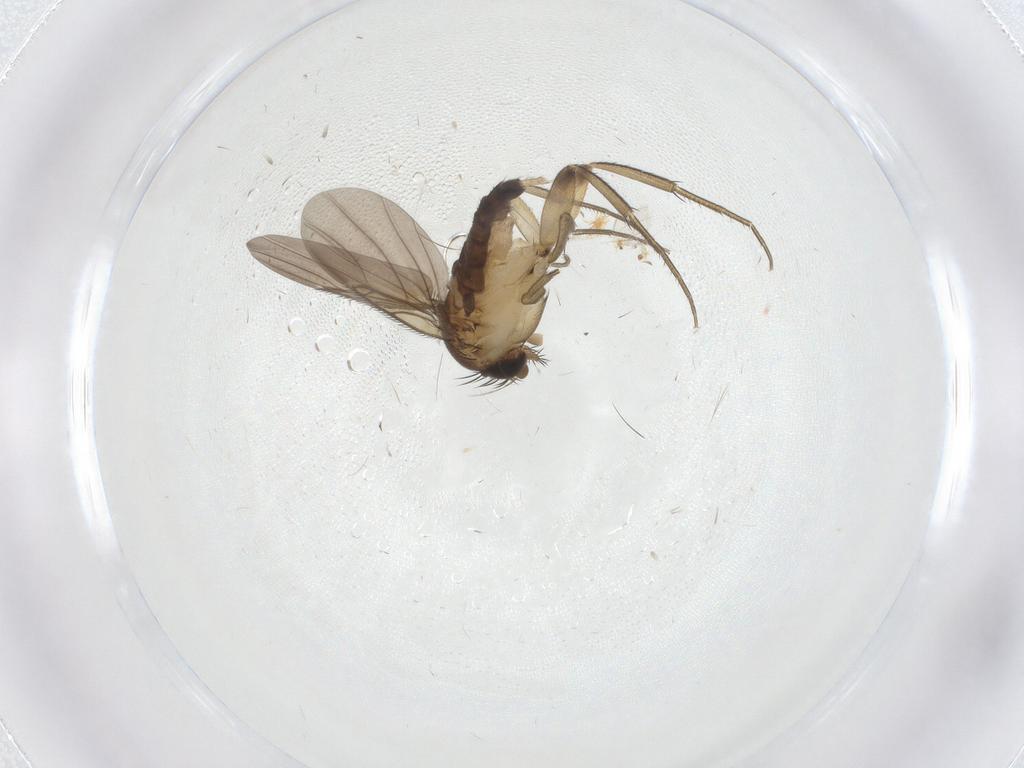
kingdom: Animalia
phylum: Arthropoda
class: Insecta
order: Diptera
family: Phoridae
